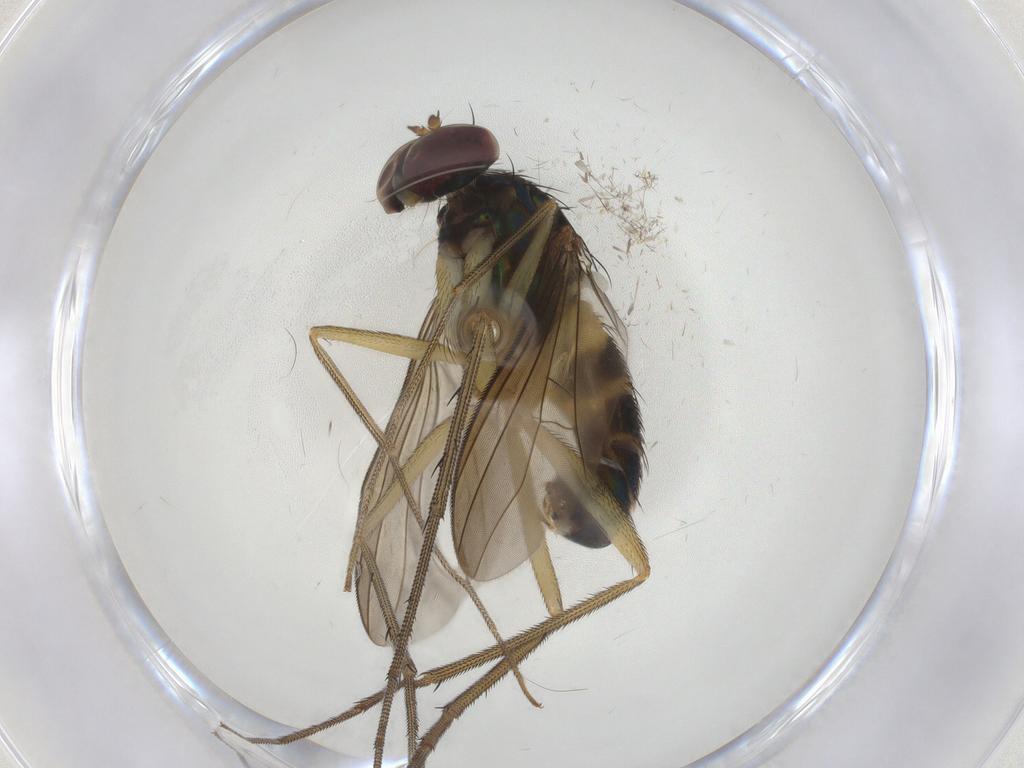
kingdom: Animalia
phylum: Arthropoda
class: Insecta
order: Diptera
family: Dolichopodidae
